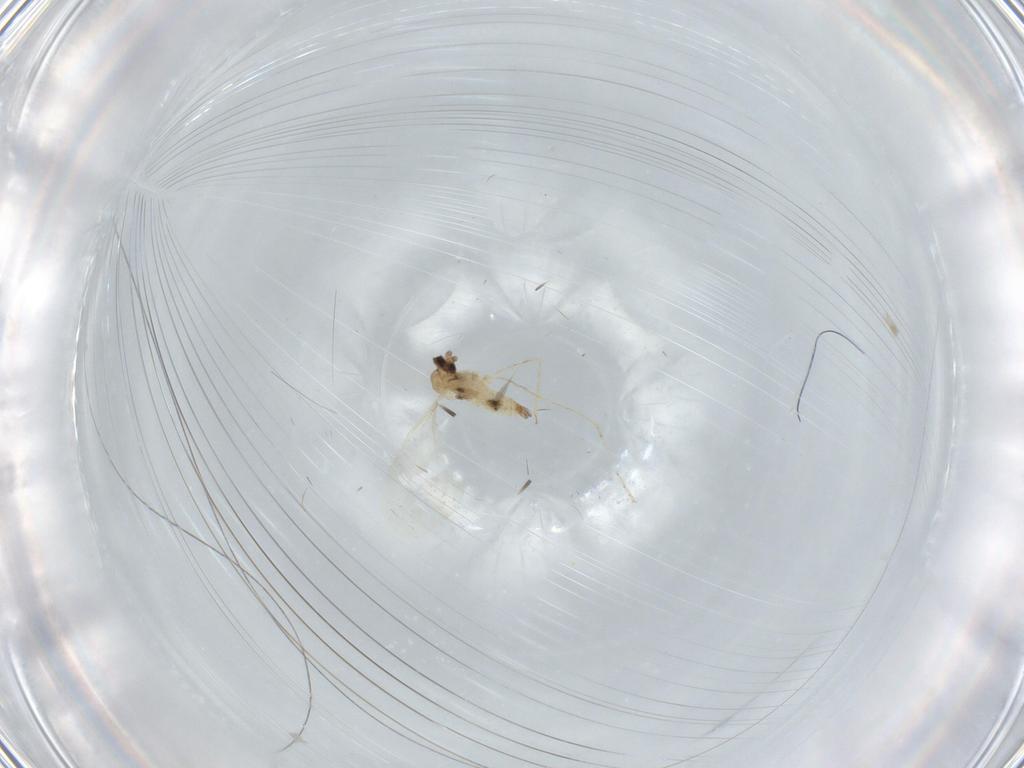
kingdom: Animalia
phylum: Arthropoda
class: Insecta
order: Diptera
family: Cecidomyiidae
